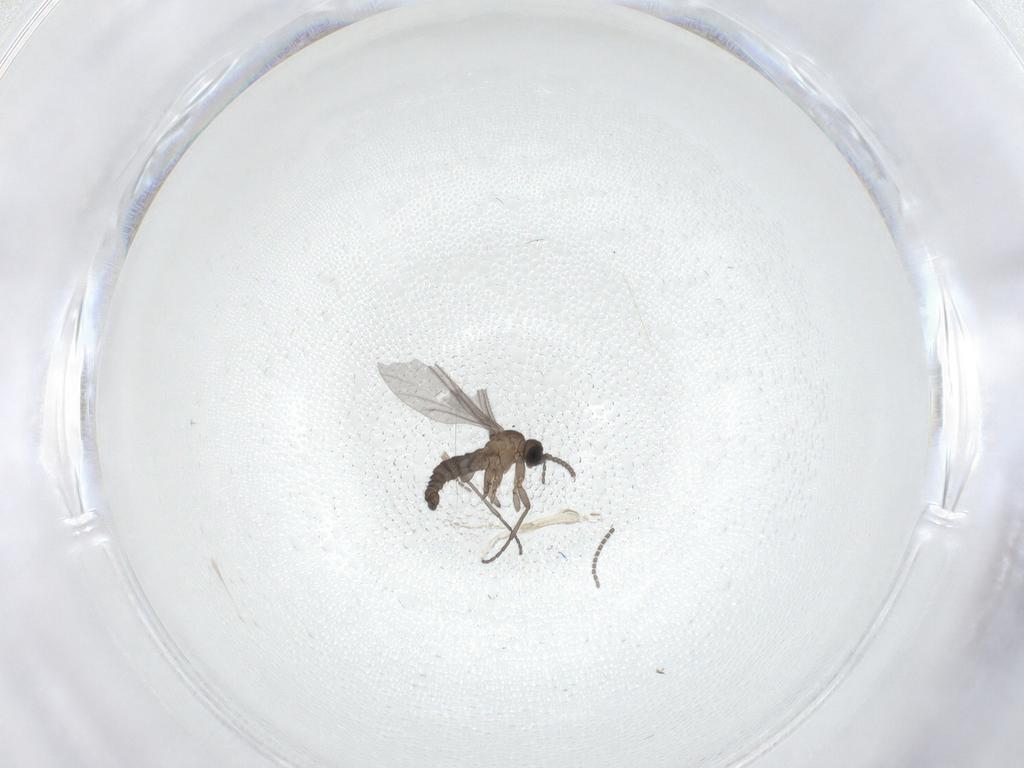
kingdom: Animalia
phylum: Arthropoda
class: Insecta
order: Diptera
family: Sciaridae
